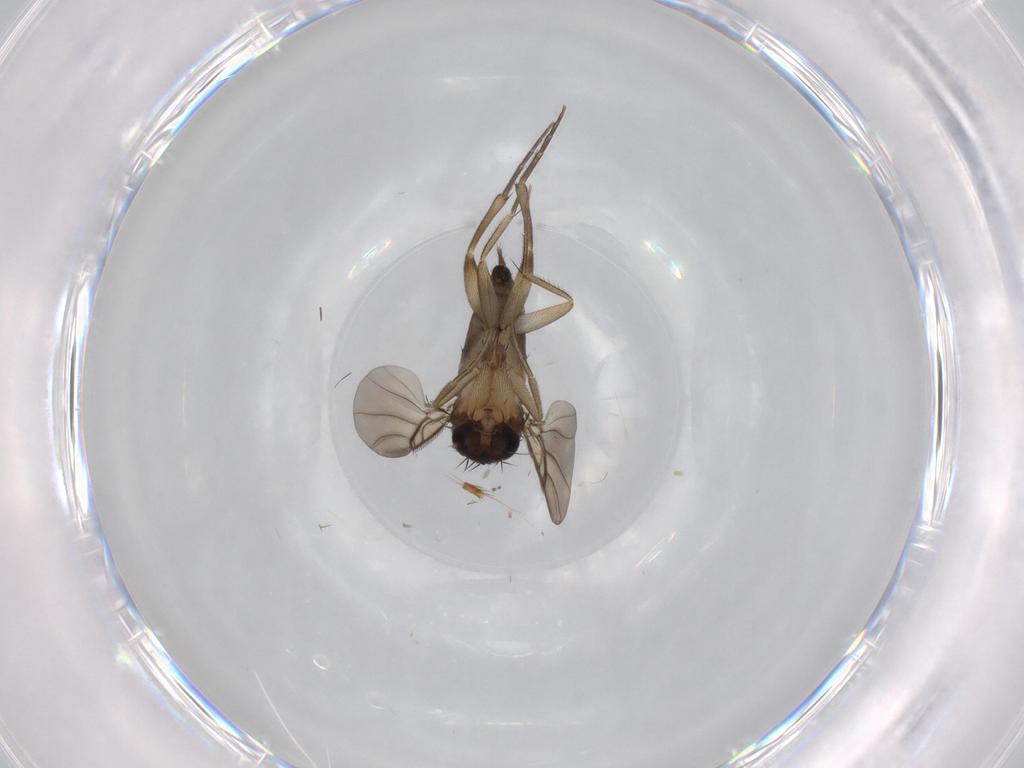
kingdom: Animalia
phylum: Arthropoda
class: Insecta
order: Diptera
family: Phoridae
